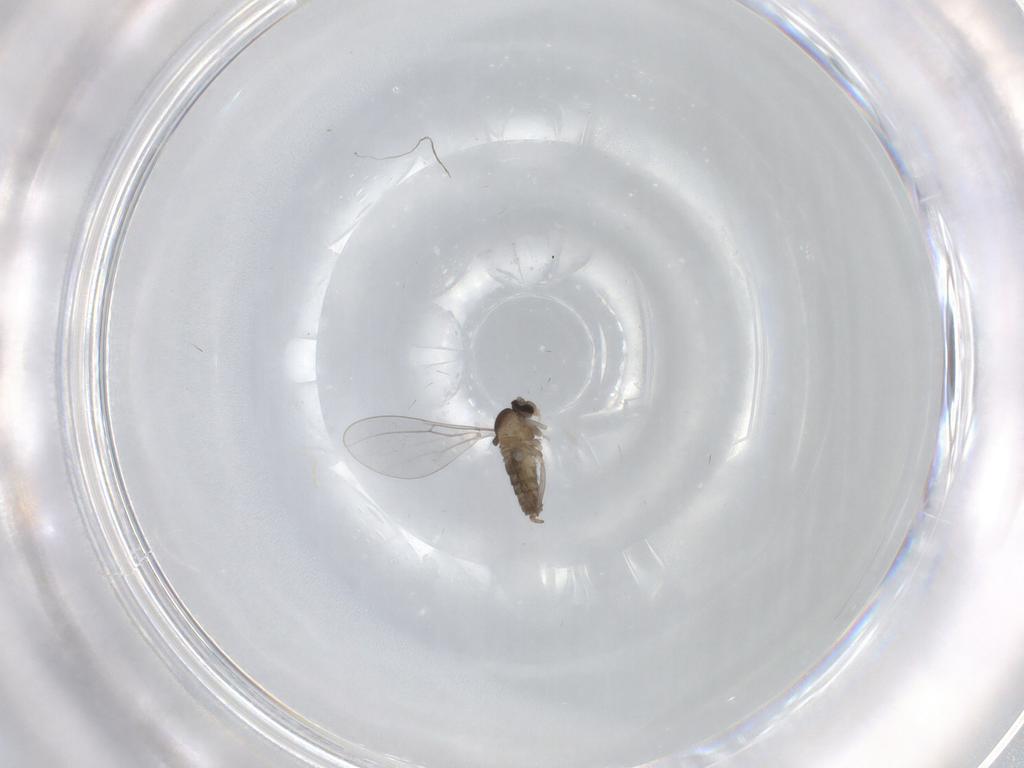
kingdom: Animalia
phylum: Arthropoda
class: Insecta
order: Diptera
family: Cecidomyiidae
